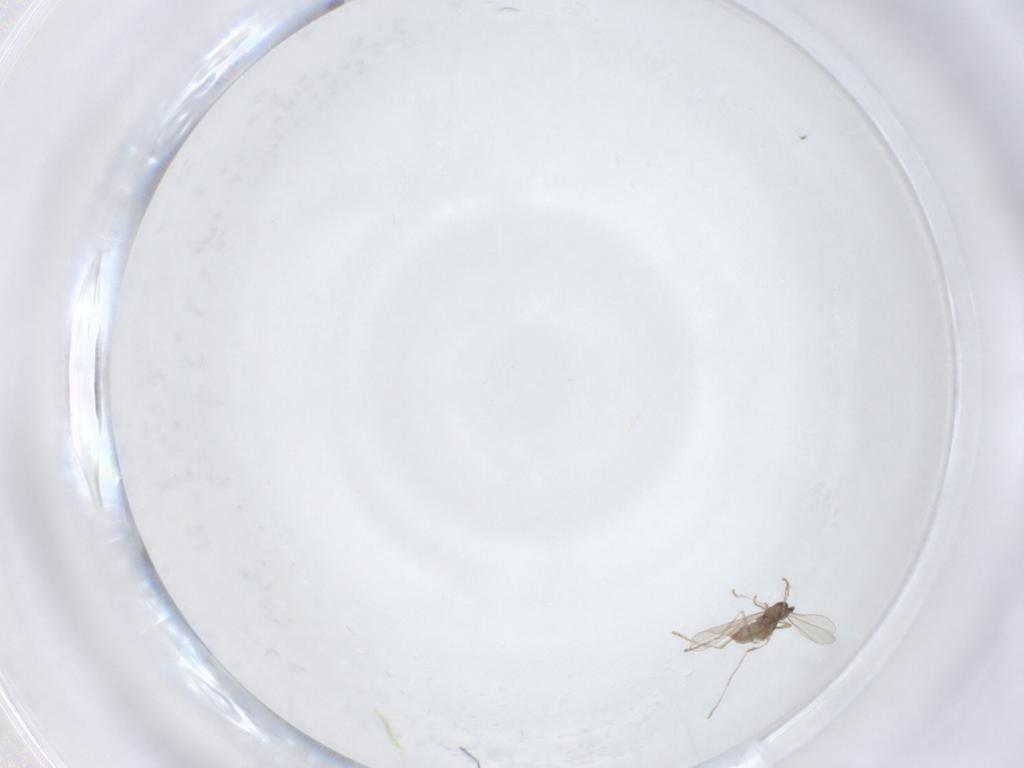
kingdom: Animalia
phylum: Arthropoda
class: Insecta
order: Diptera
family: Cecidomyiidae
